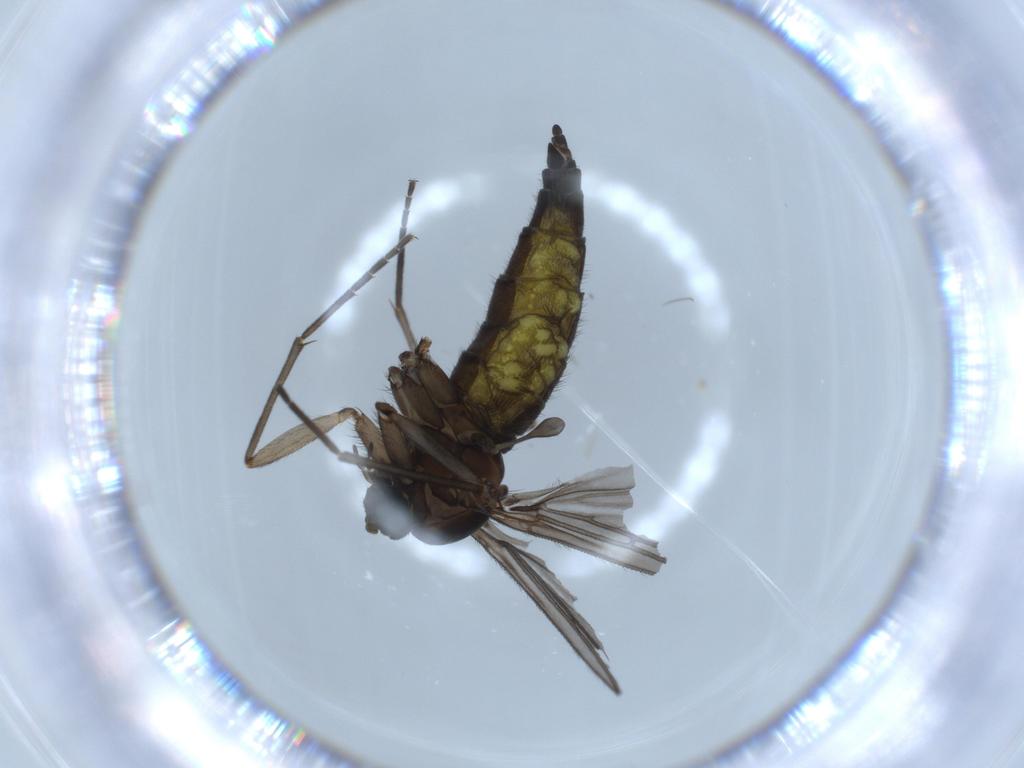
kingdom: Animalia
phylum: Arthropoda
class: Insecta
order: Diptera
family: Sciaridae
